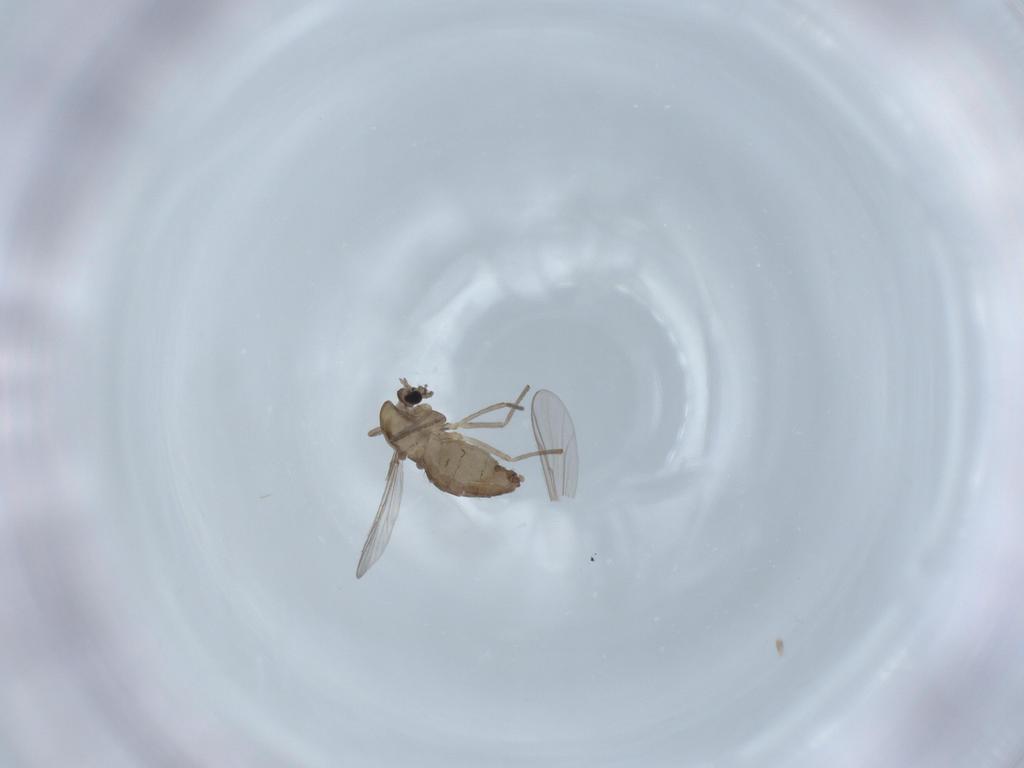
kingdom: Animalia
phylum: Arthropoda
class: Insecta
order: Diptera
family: Chironomidae
